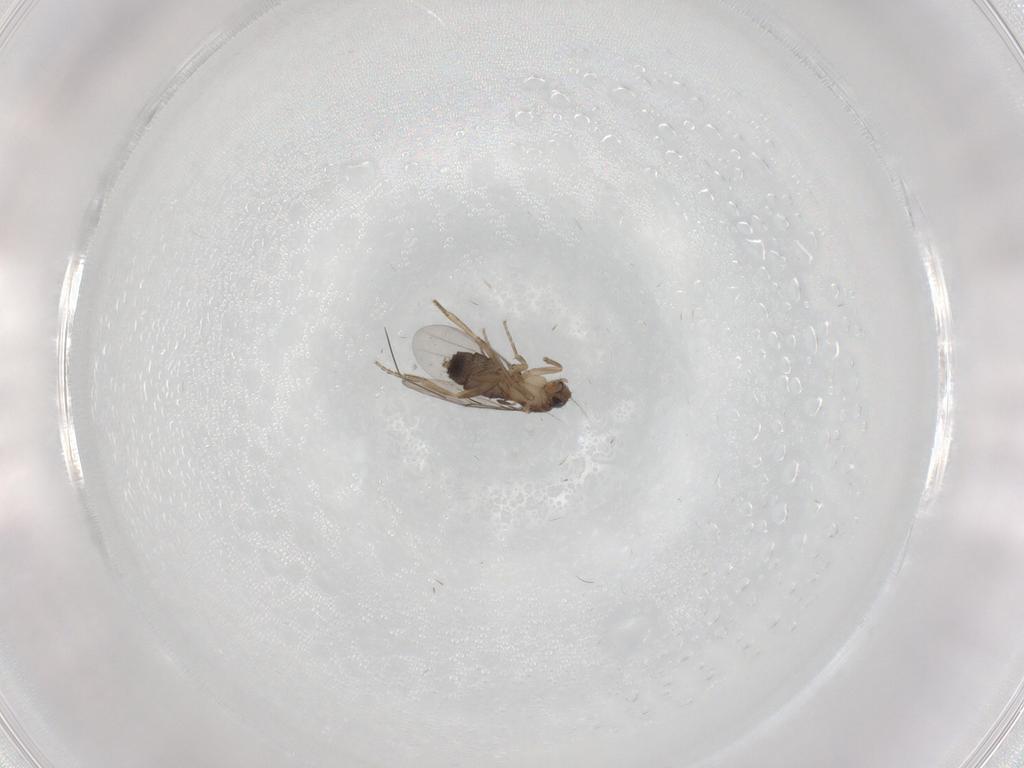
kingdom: Animalia
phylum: Arthropoda
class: Insecta
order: Diptera
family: Phoridae
